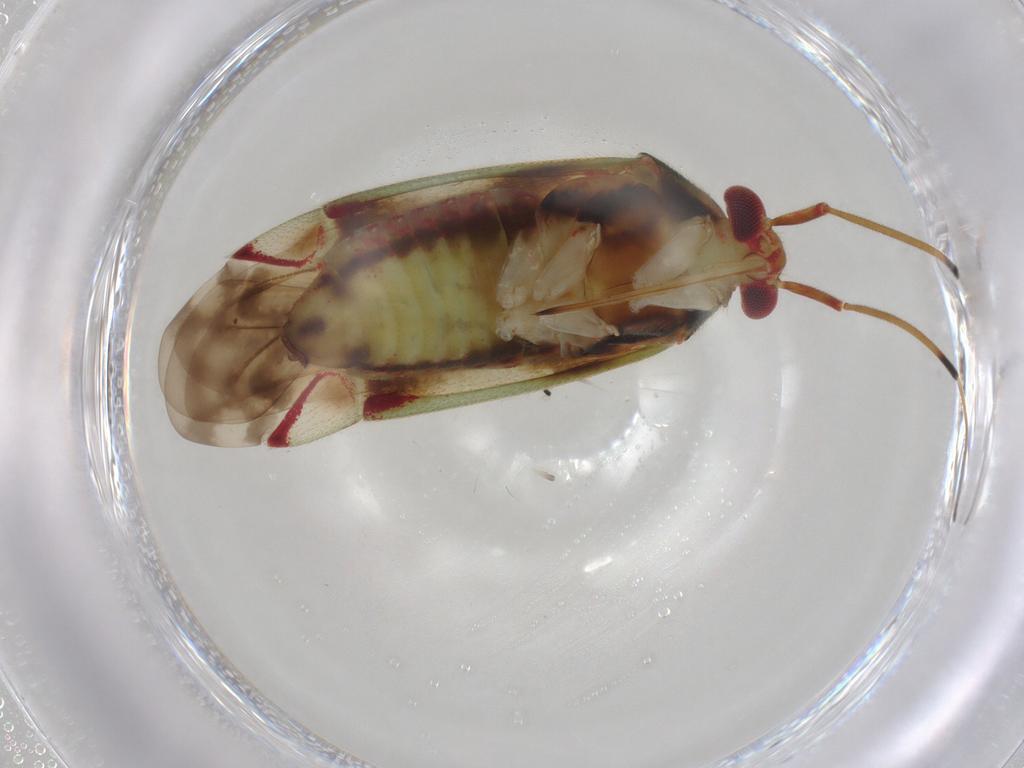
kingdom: Animalia
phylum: Arthropoda
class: Insecta
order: Hemiptera
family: Miridae
